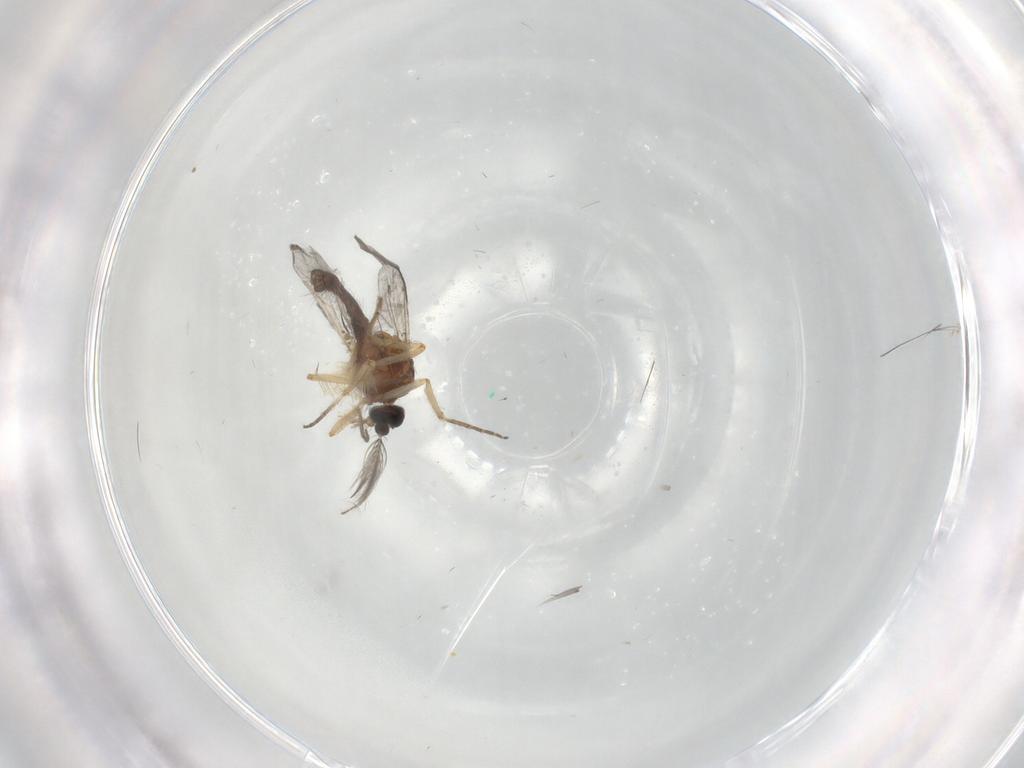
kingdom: Animalia
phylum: Arthropoda
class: Insecta
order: Diptera
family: Ceratopogonidae
